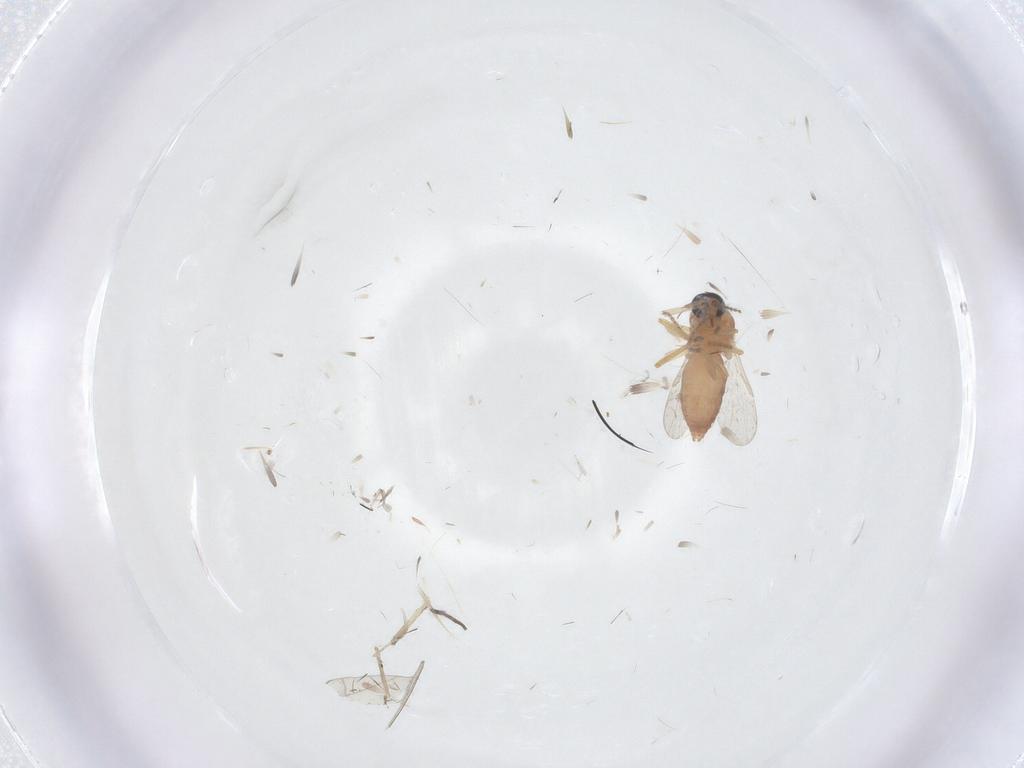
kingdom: Animalia
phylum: Arthropoda
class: Insecta
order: Diptera
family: Ceratopogonidae
